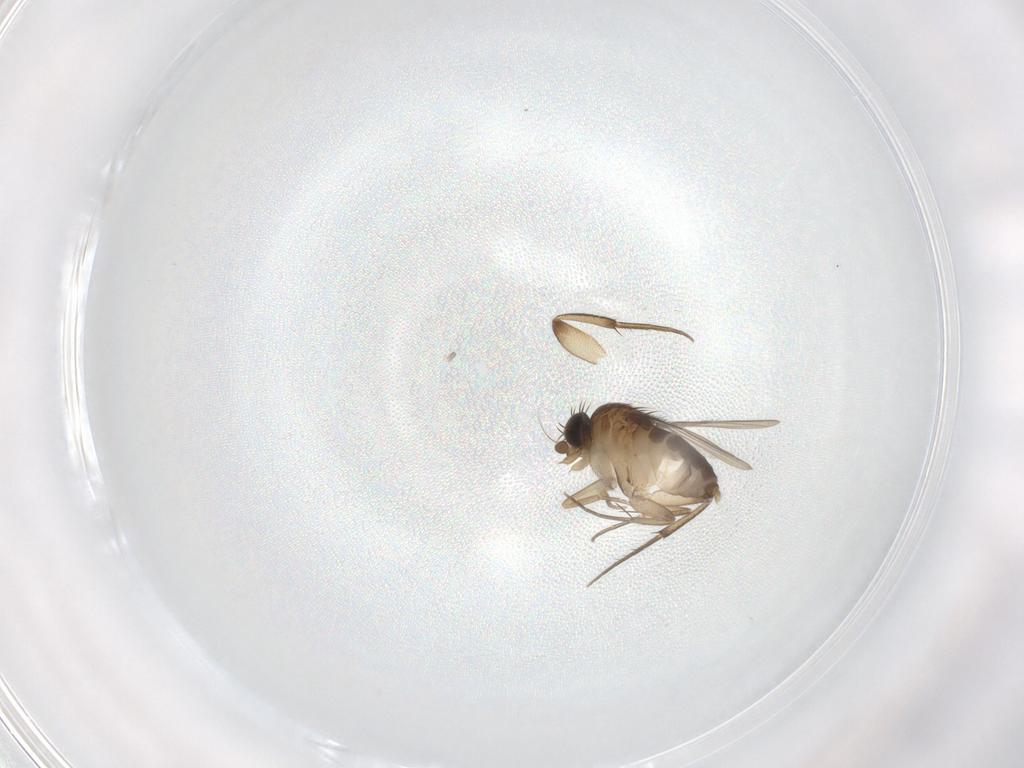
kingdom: Animalia
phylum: Arthropoda
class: Insecta
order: Diptera
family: Phoridae
